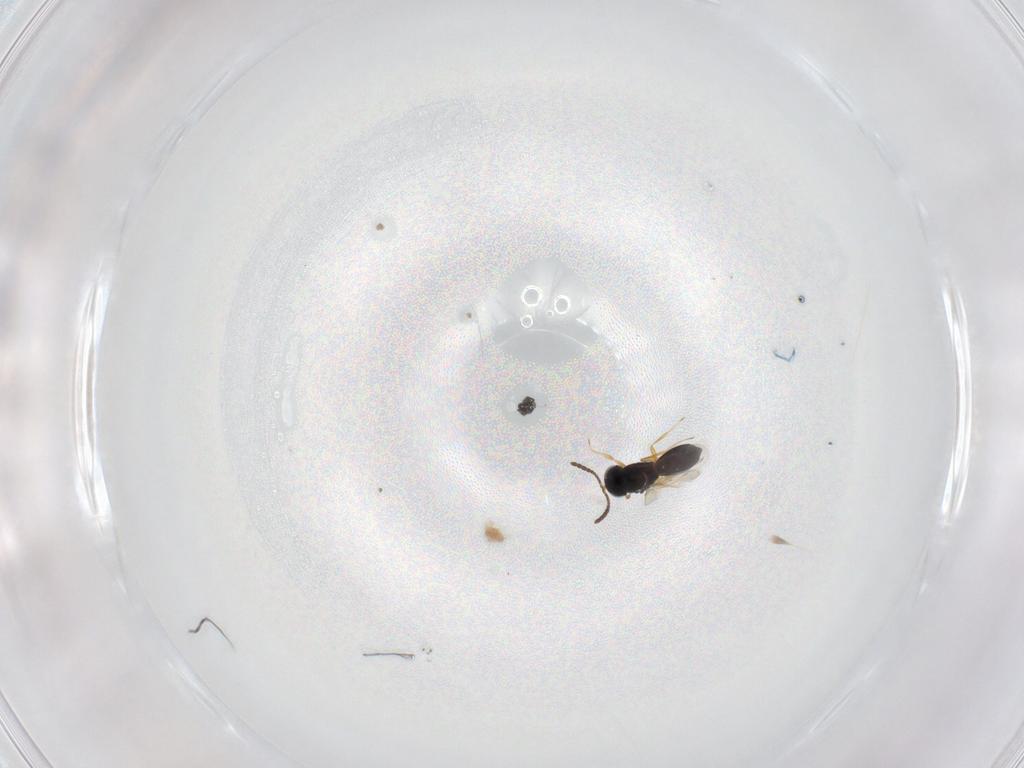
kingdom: Animalia
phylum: Arthropoda
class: Insecta
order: Hymenoptera
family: Scelionidae
